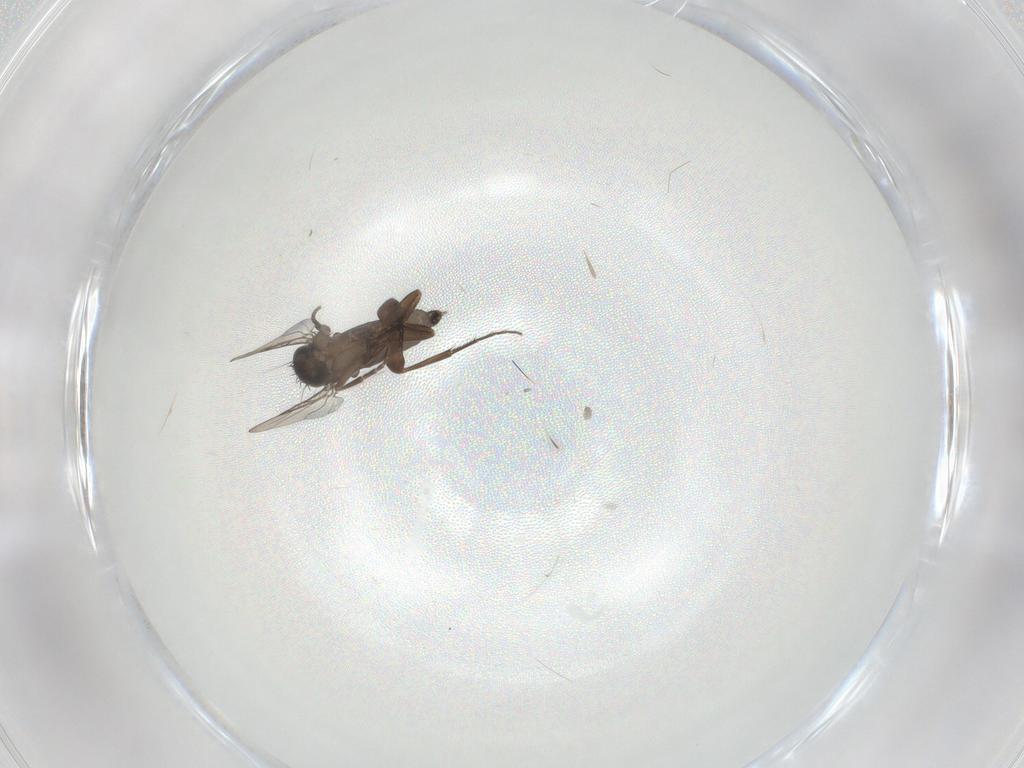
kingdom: Animalia
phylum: Arthropoda
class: Insecta
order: Diptera
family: Phoridae
